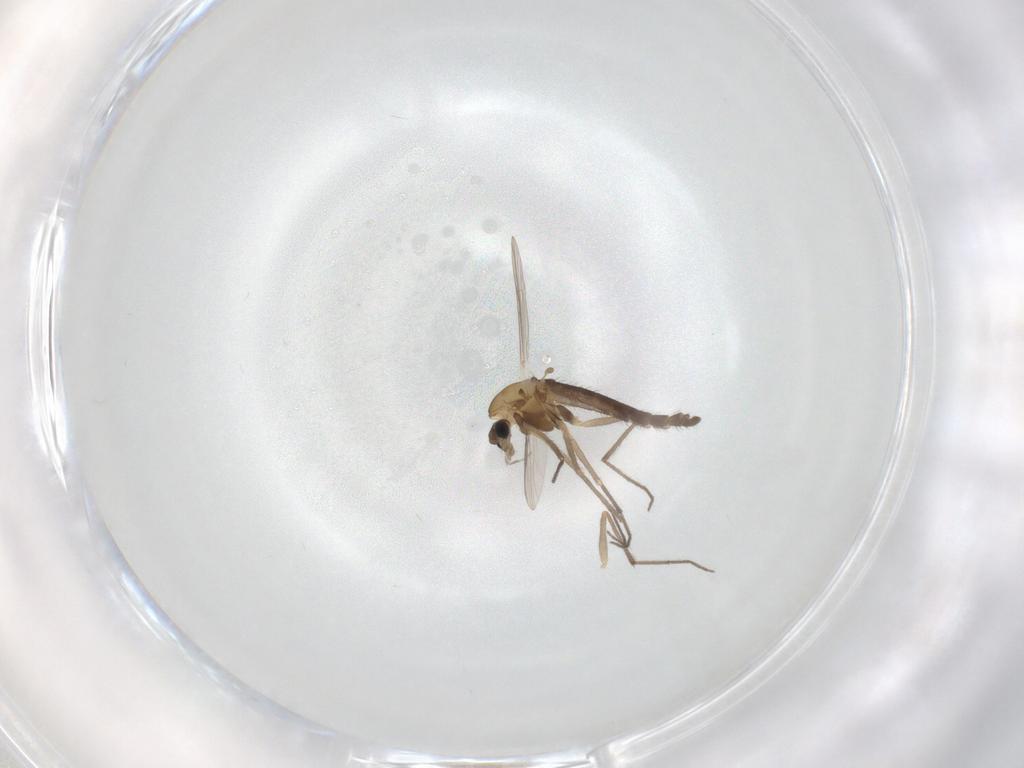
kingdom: Animalia
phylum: Arthropoda
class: Insecta
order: Diptera
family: Chironomidae
